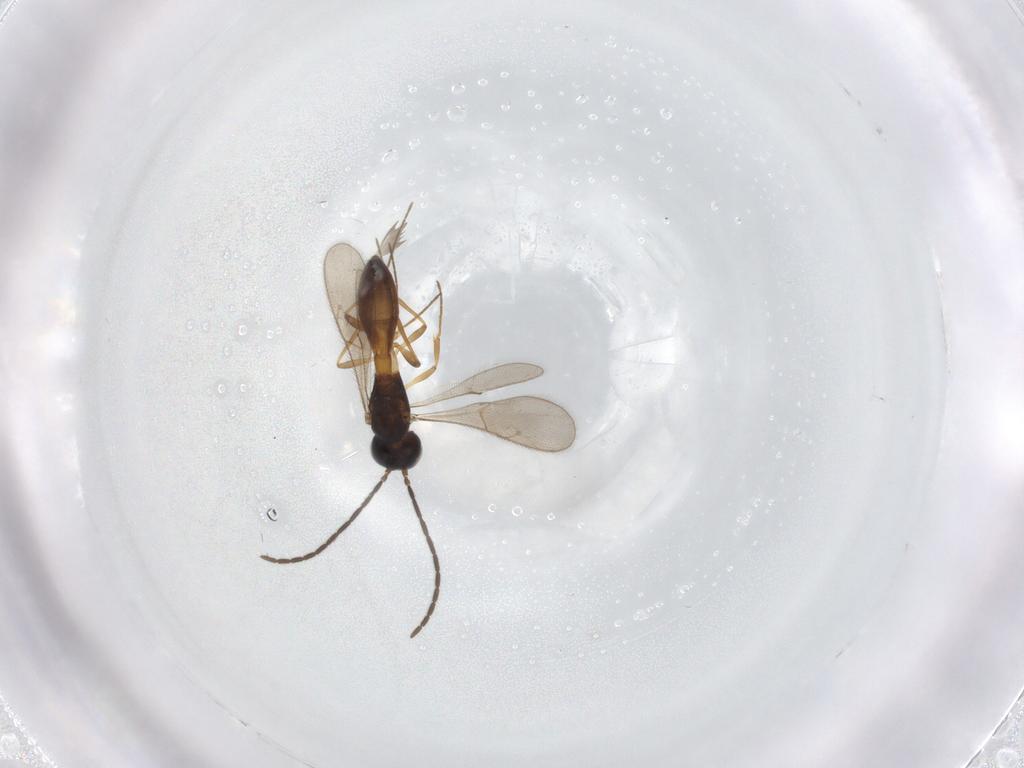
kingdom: Animalia
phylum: Arthropoda
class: Insecta
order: Hymenoptera
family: Scelionidae
